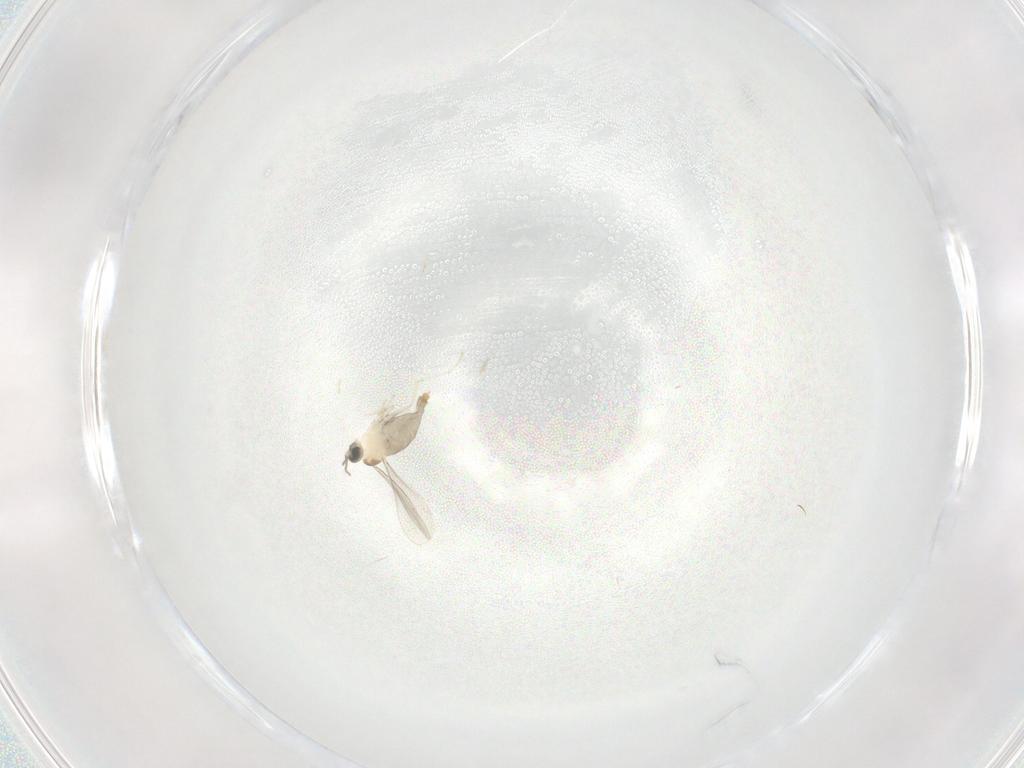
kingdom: Animalia
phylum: Arthropoda
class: Insecta
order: Diptera
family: Cecidomyiidae
